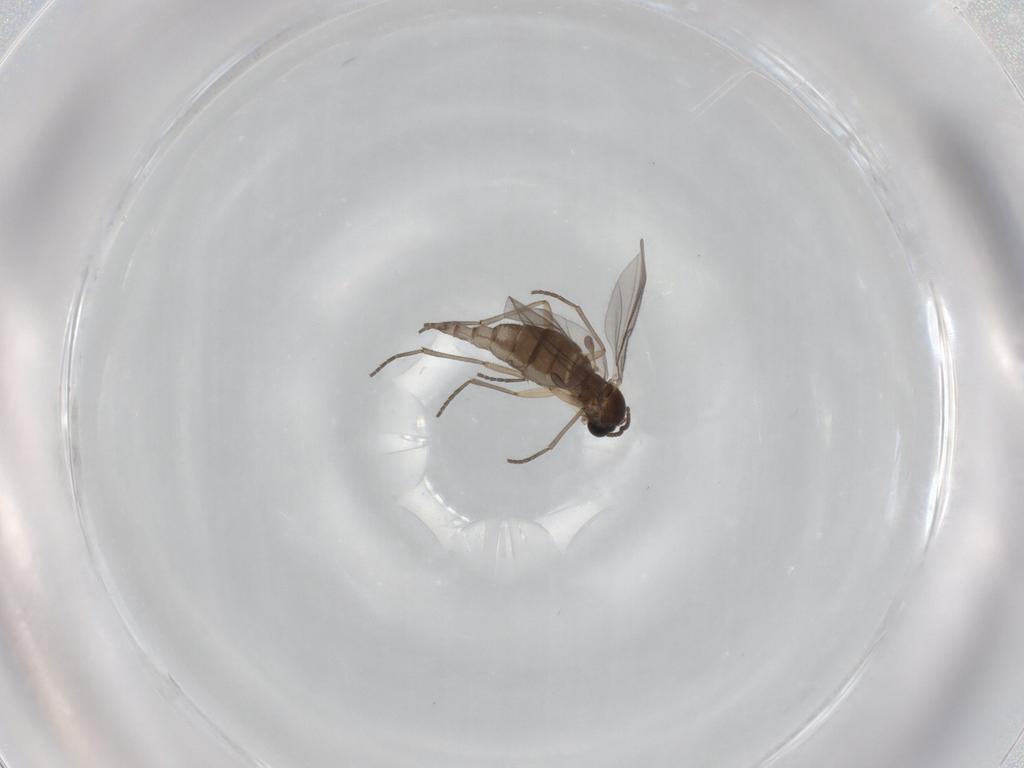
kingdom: Animalia
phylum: Arthropoda
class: Insecta
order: Diptera
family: Sciaridae
